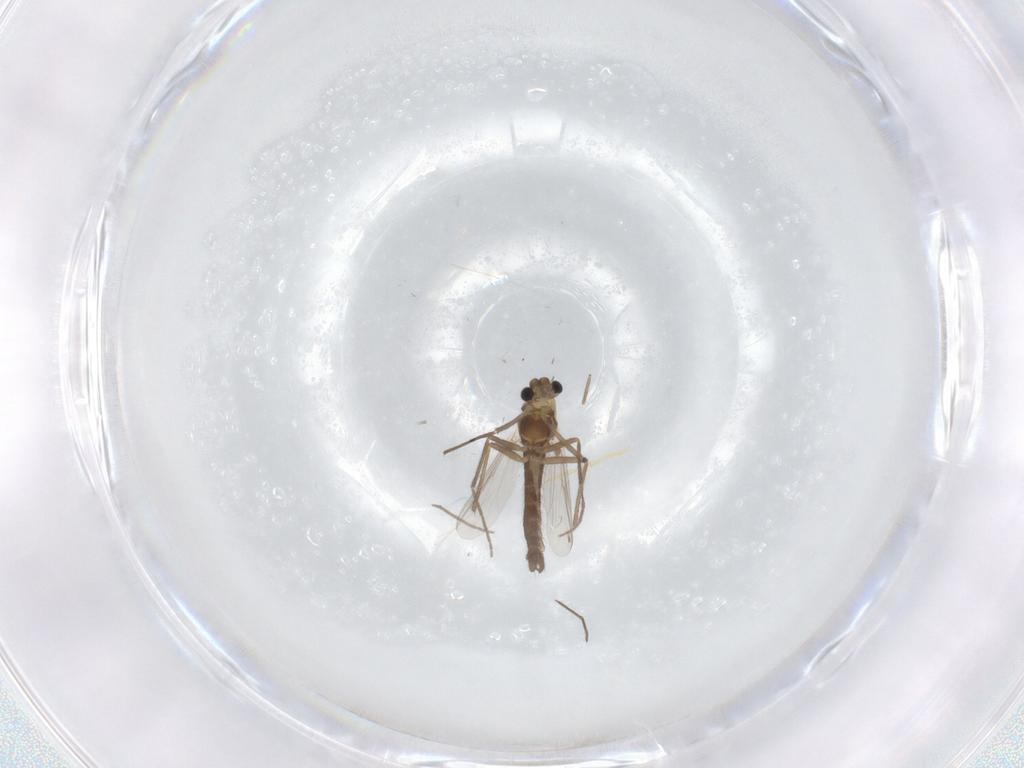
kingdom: Animalia
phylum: Arthropoda
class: Insecta
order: Diptera
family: Chironomidae
